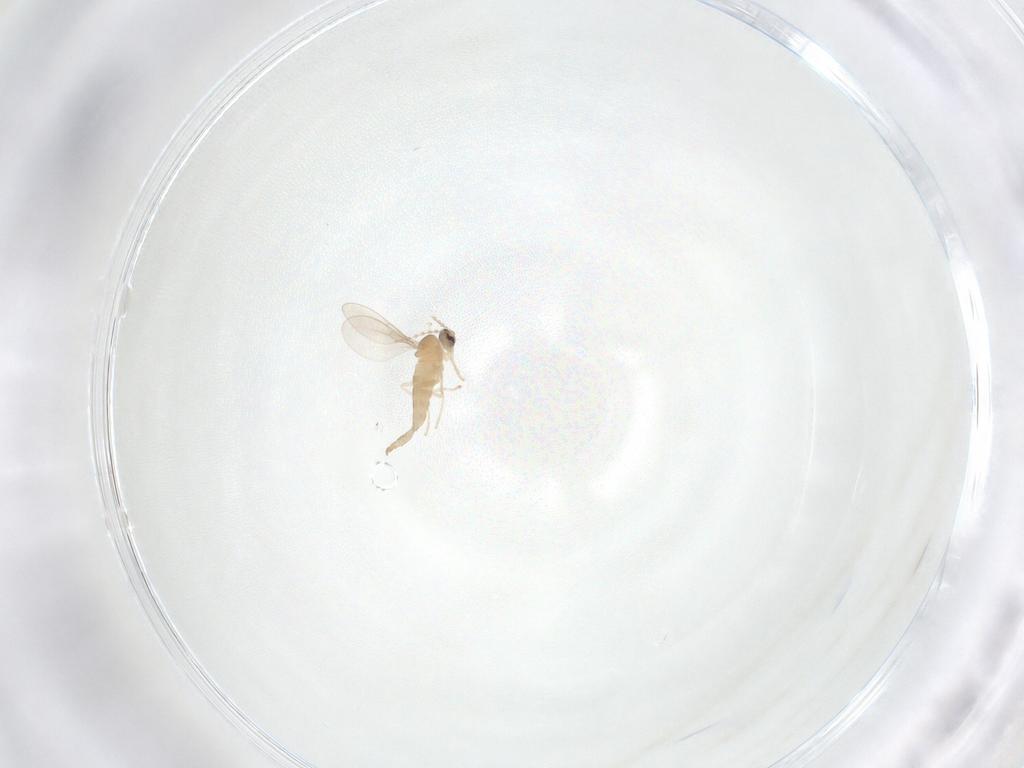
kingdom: Animalia
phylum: Arthropoda
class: Insecta
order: Diptera
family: Cecidomyiidae
